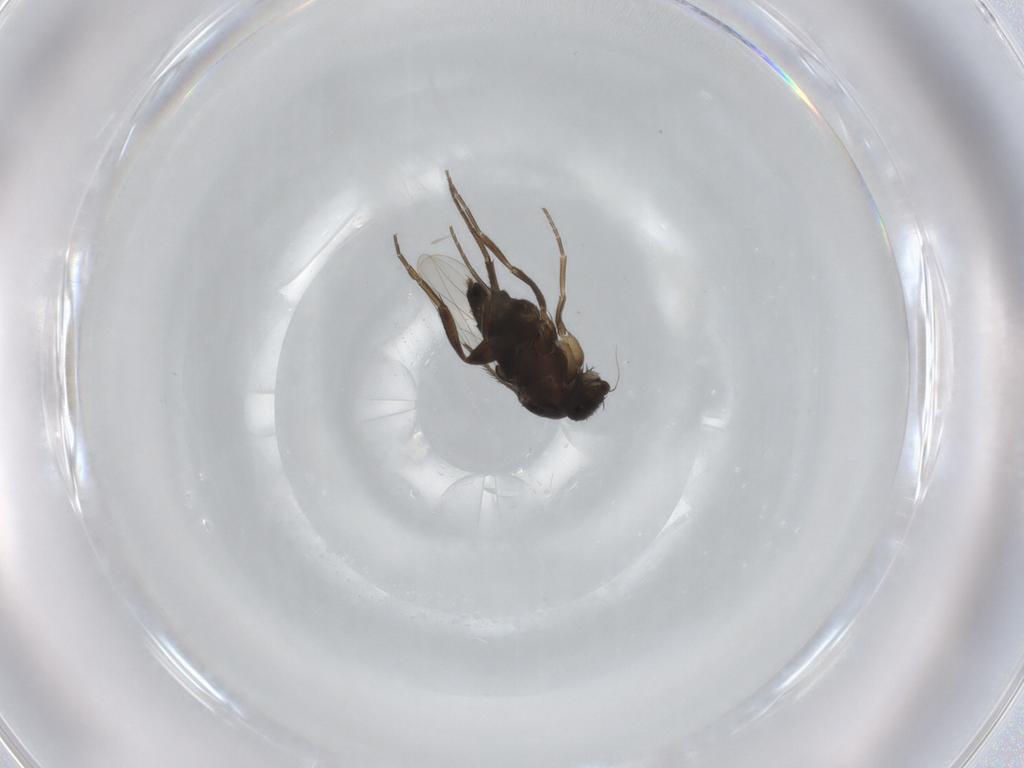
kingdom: Animalia
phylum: Arthropoda
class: Insecta
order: Diptera
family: Phoridae
